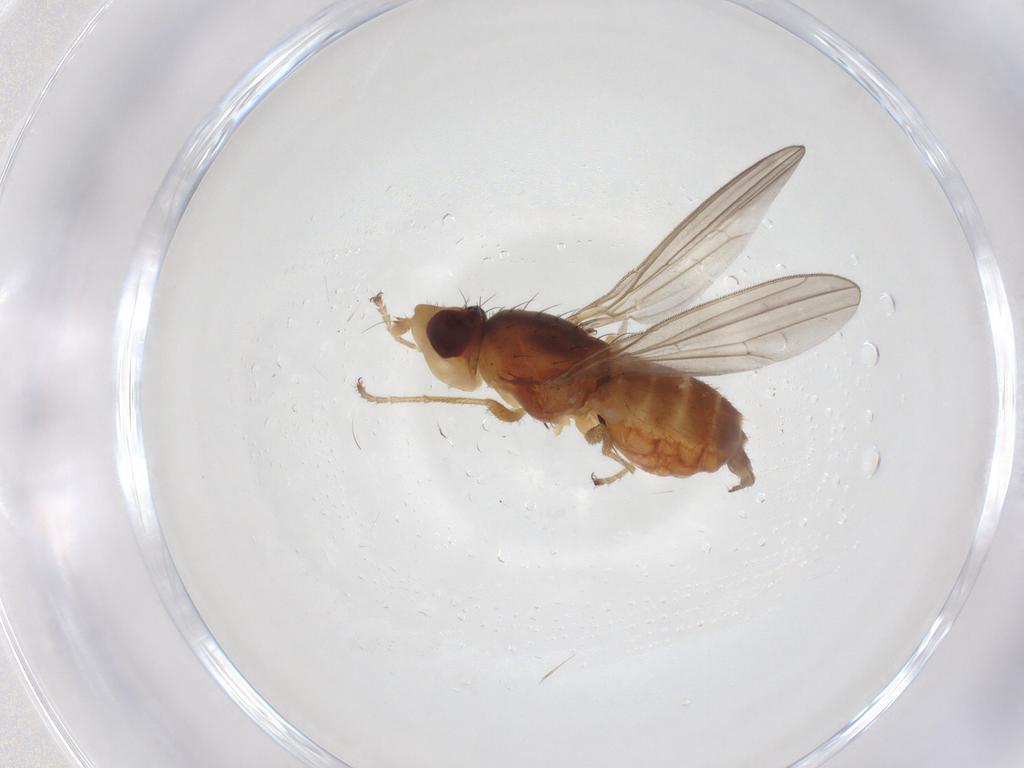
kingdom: Animalia
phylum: Arthropoda
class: Insecta
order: Diptera
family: Canacidae
